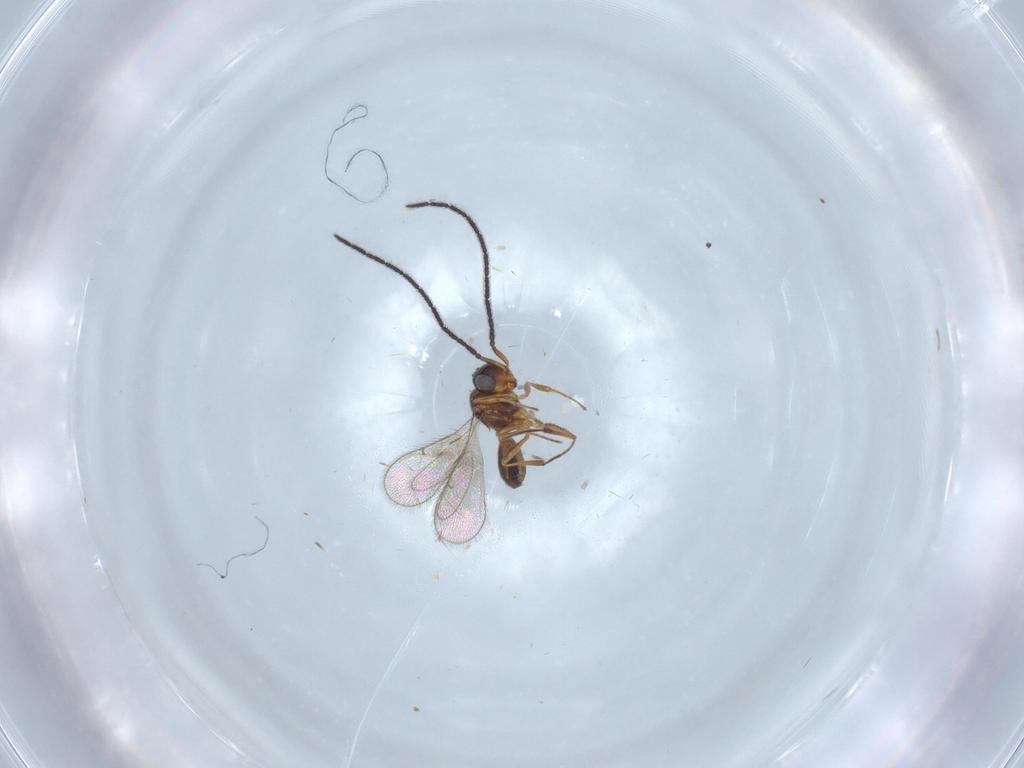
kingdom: Animalia
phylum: Arthropoda
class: Insecta
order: Hymenoptera
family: Scelionidae
